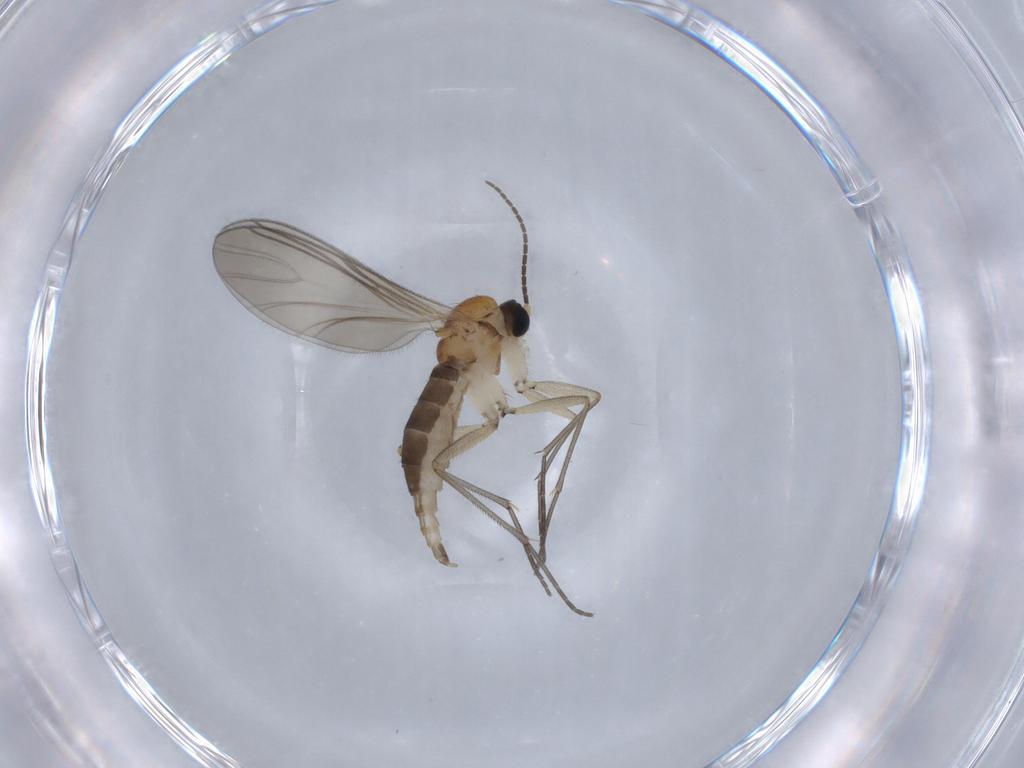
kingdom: Animalia
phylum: Arthropoda
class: Insecta
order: Diptera
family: Sciaridae
